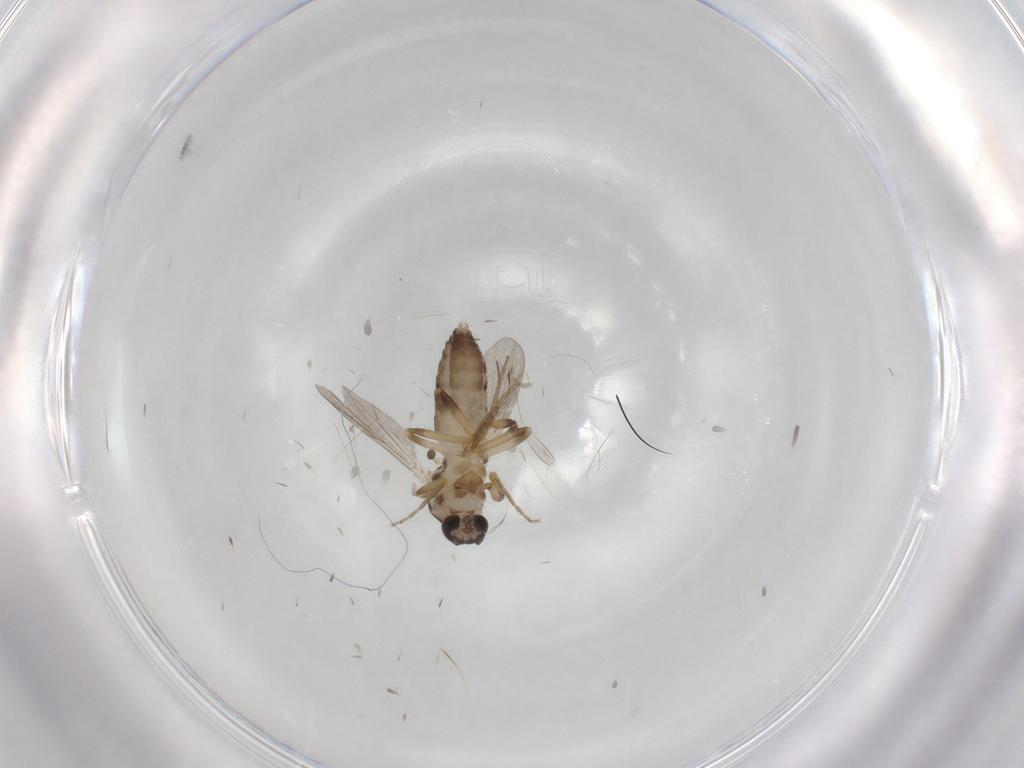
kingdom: Animalia
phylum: Arthropoda
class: Insecta
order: Diptera
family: Ceratopogonidae
